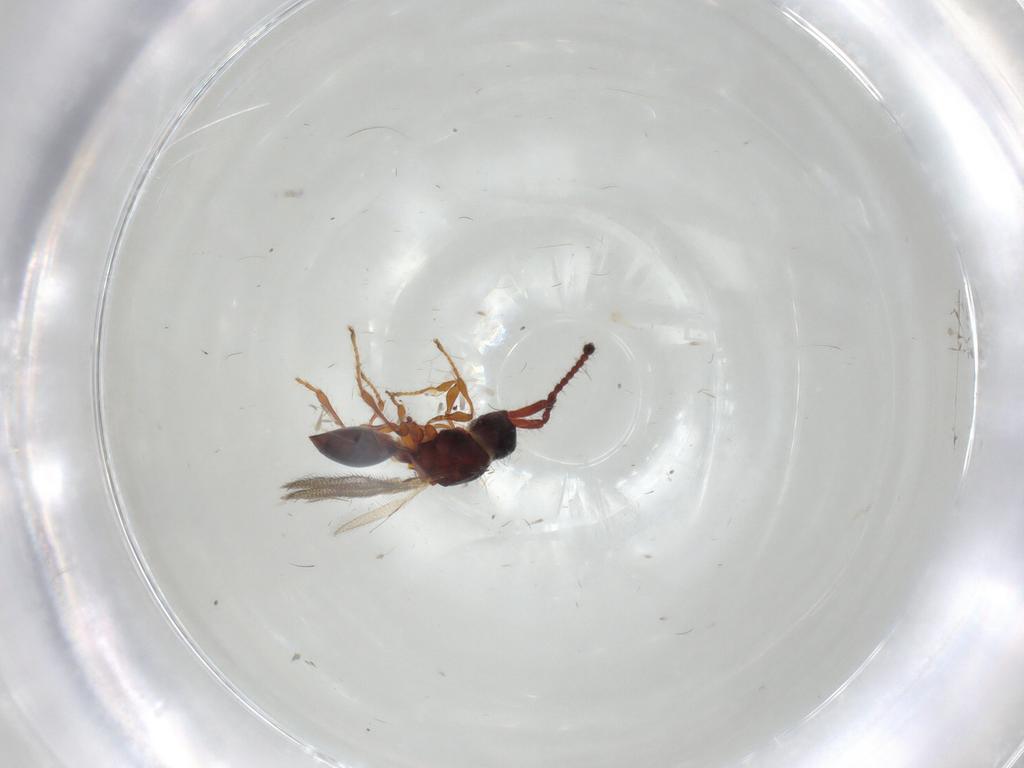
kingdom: Animalia
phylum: Arthropoda
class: Insecta
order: Hymenoptera
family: Diapriidae
